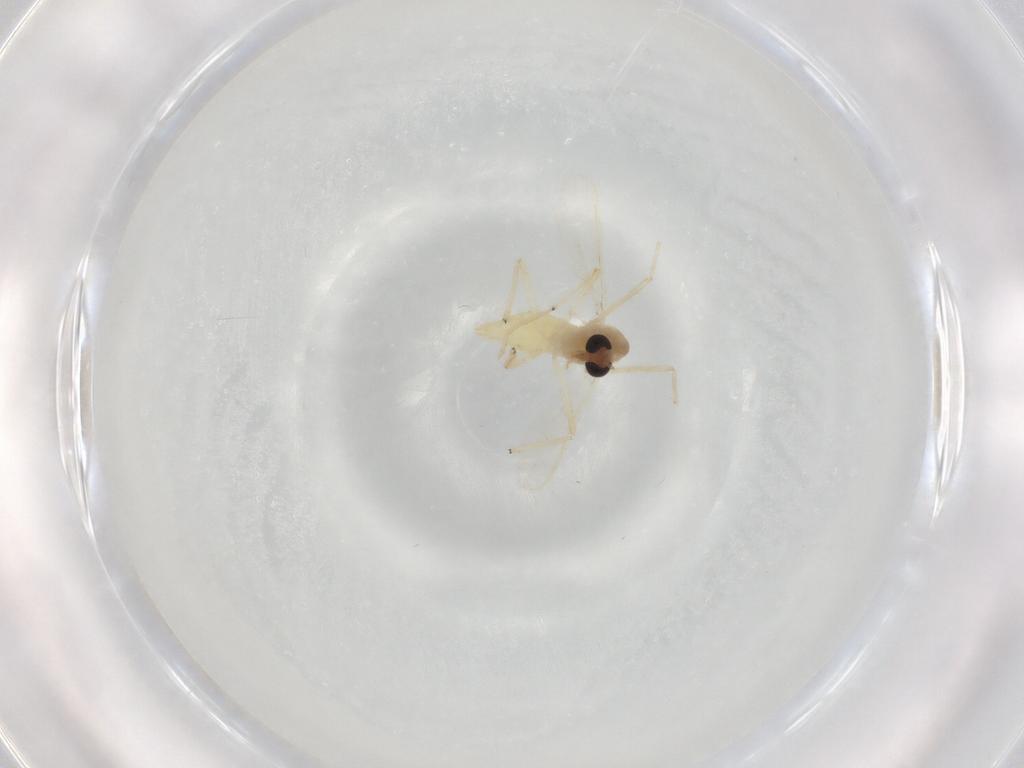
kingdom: Animalia
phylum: Arthropoda
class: Insecta
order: Diptera
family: Chironomidae
